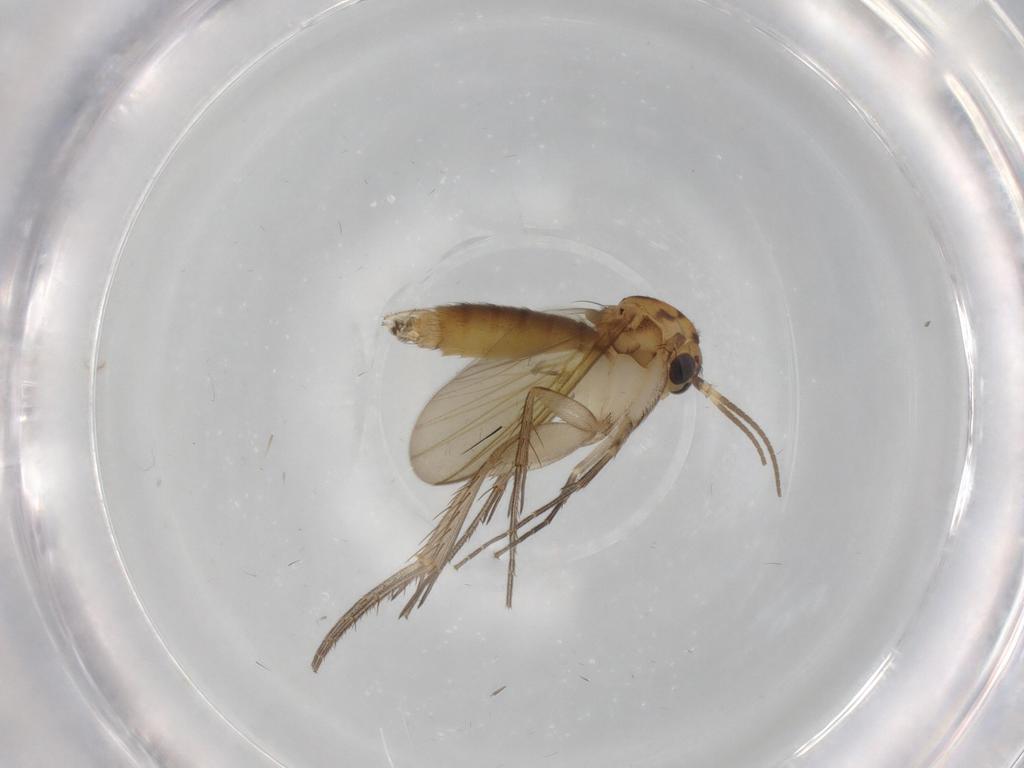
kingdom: Animalia
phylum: Arthropoda
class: Insecta
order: Diptera
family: Mycetophilidae
